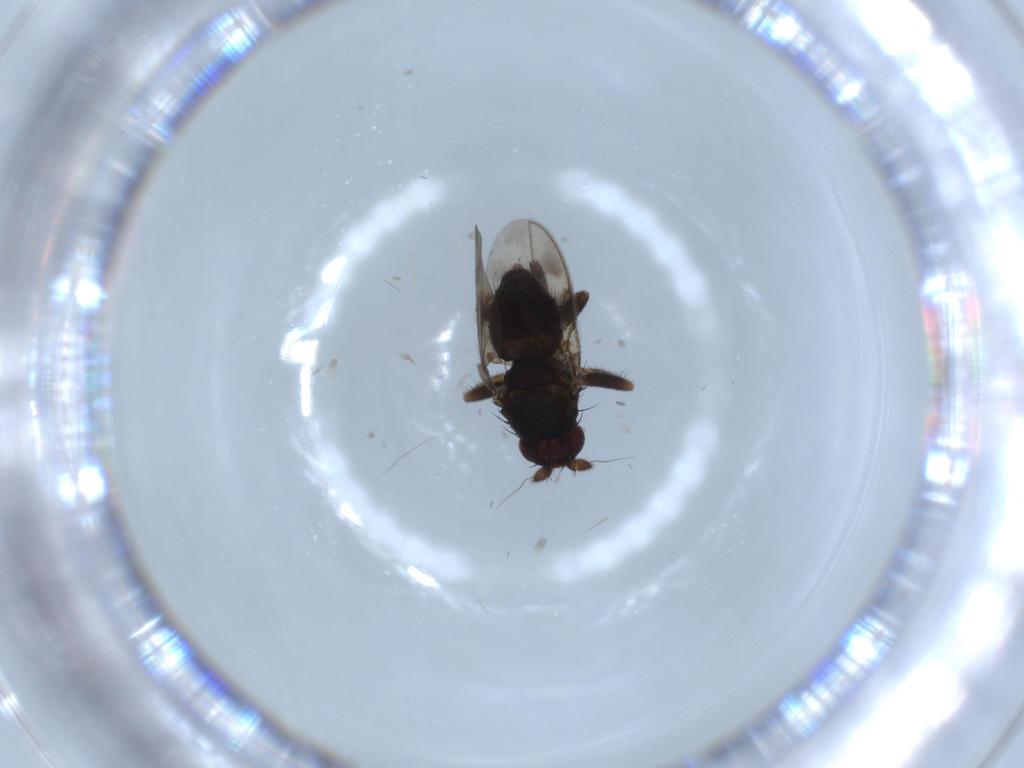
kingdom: Animalia
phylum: Arthropoda
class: Insecta
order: Diptera
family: Sphaeroceridae
